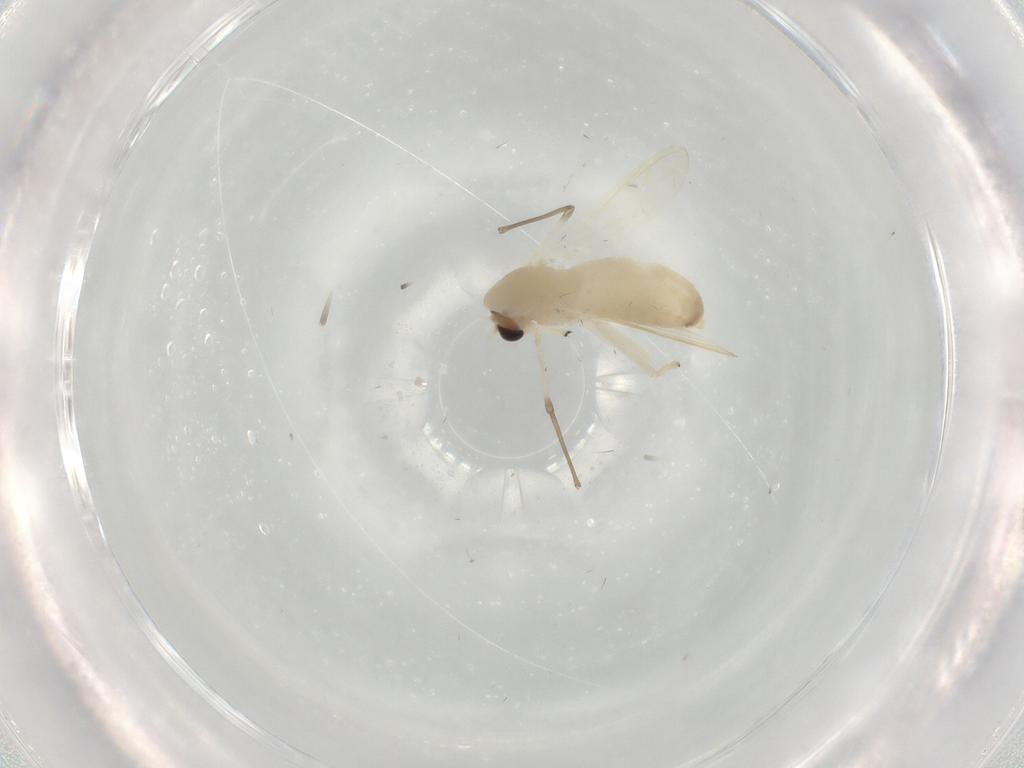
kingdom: Animalia
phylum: Arthropoda
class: Insecta
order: Diptera
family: Chironomidae
